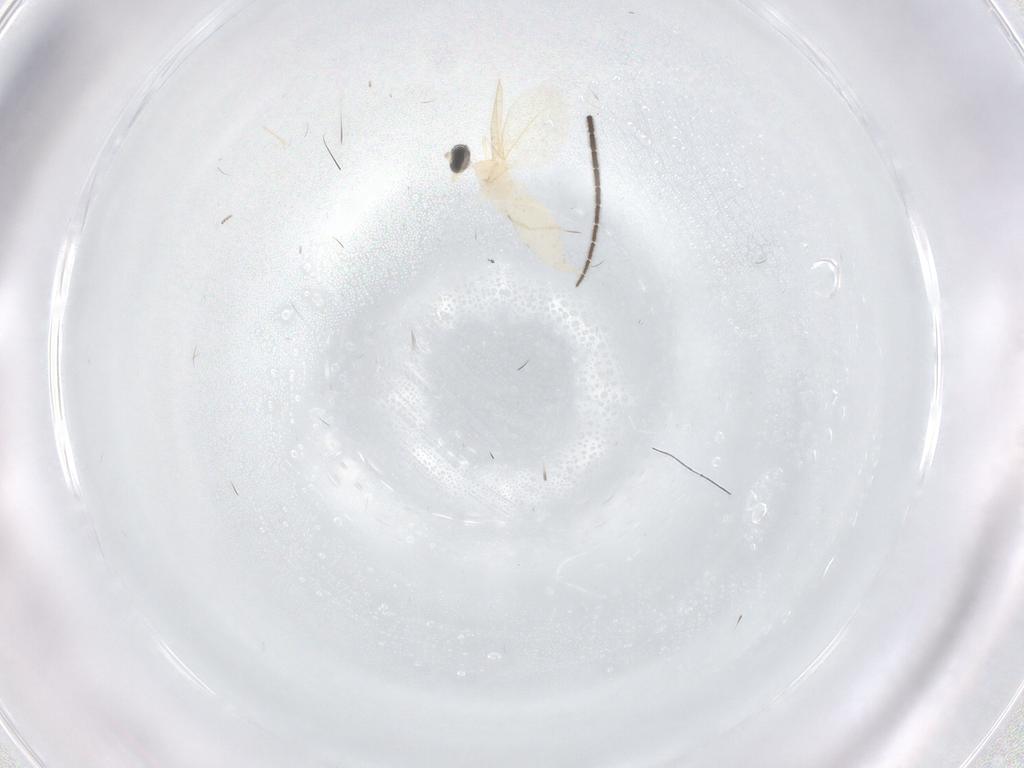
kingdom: Animalia
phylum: Arthropoda
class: Insecta
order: Diptera
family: Cecidomyiidae
